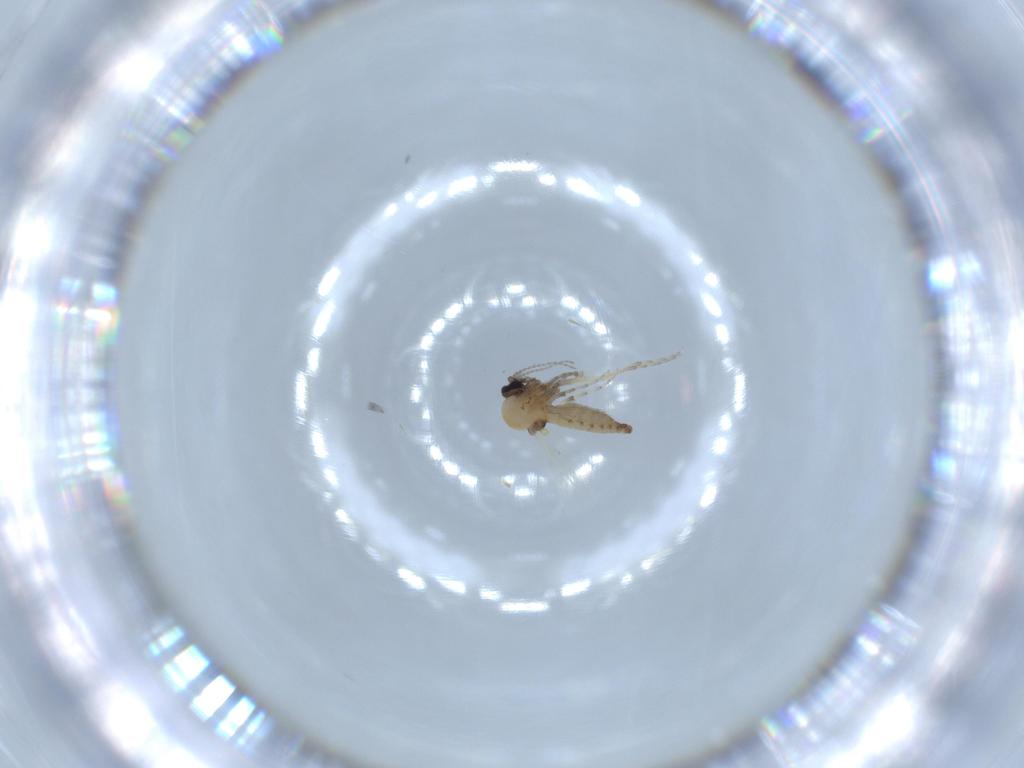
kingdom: Animalia
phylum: Arthropoda
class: Insecta
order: Diptera
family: Ceratopogonidae
